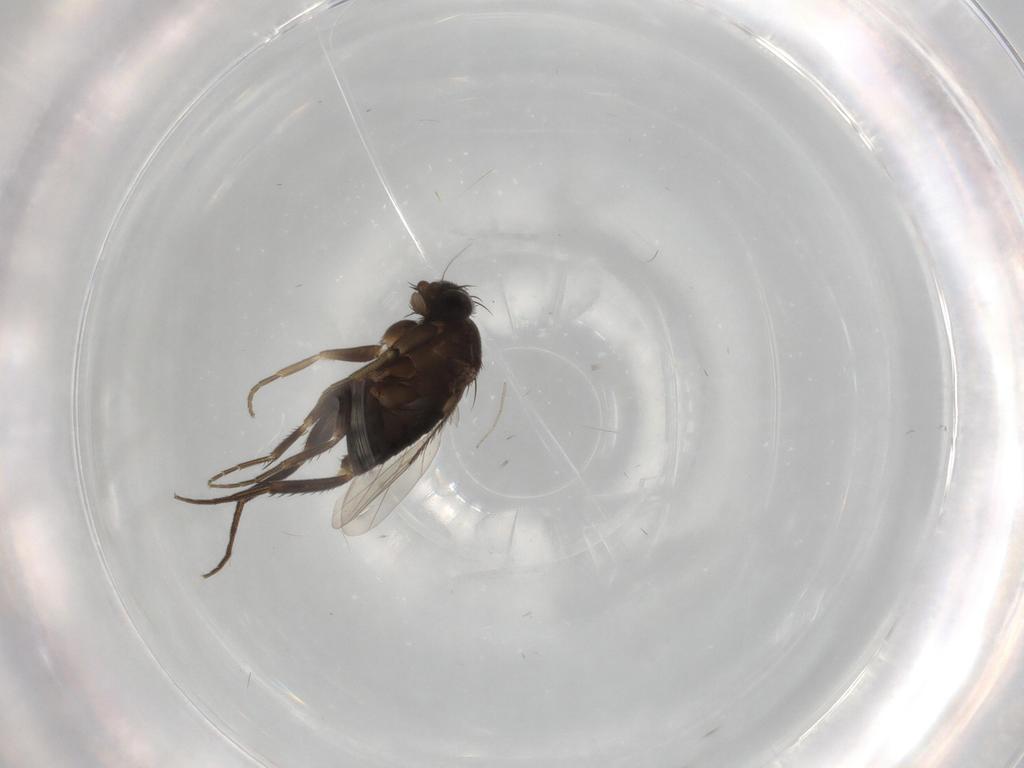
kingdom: Animalia
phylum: Arthropoda
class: Insecta
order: Diptera
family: Phoridae
